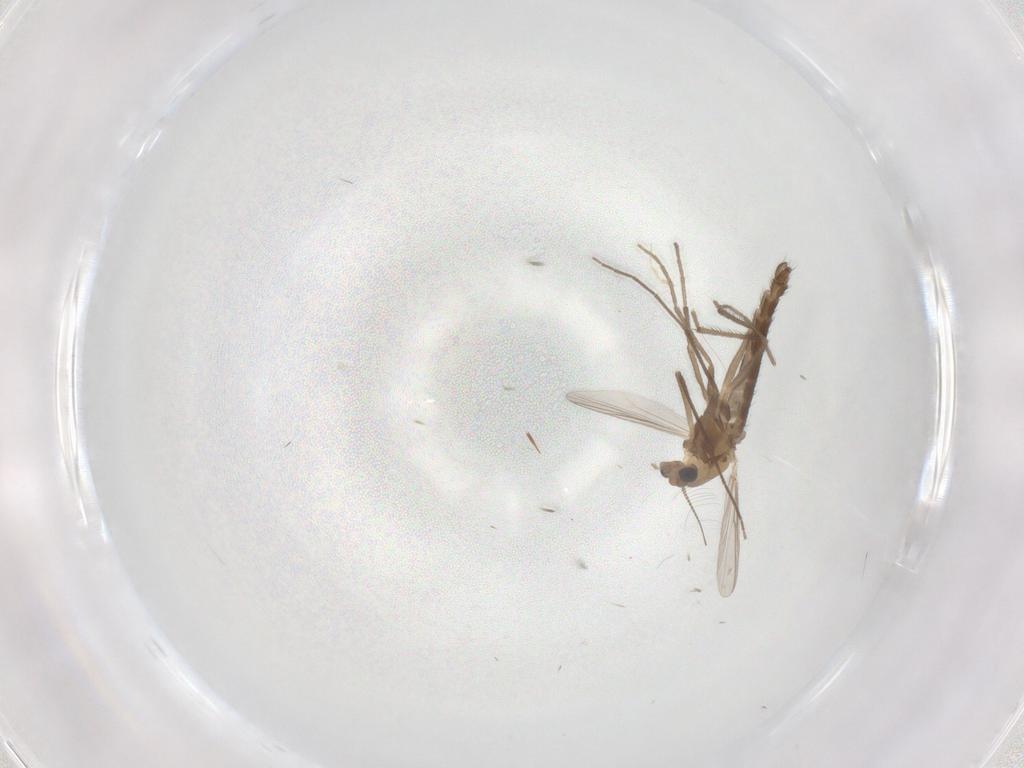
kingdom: Animalia
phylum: Arthropoda
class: Insecta
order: Diptera
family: Chironomidae
